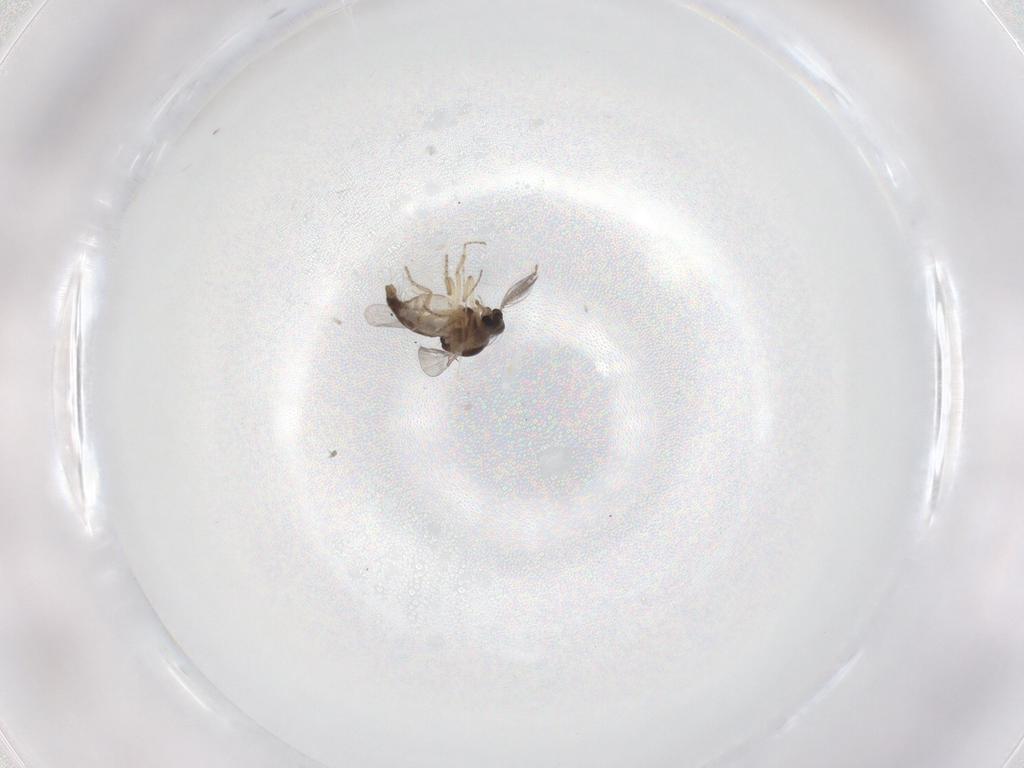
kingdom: Animalia
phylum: Arthropoda
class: Insecta
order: Diptera
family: Ceratopogonidae
